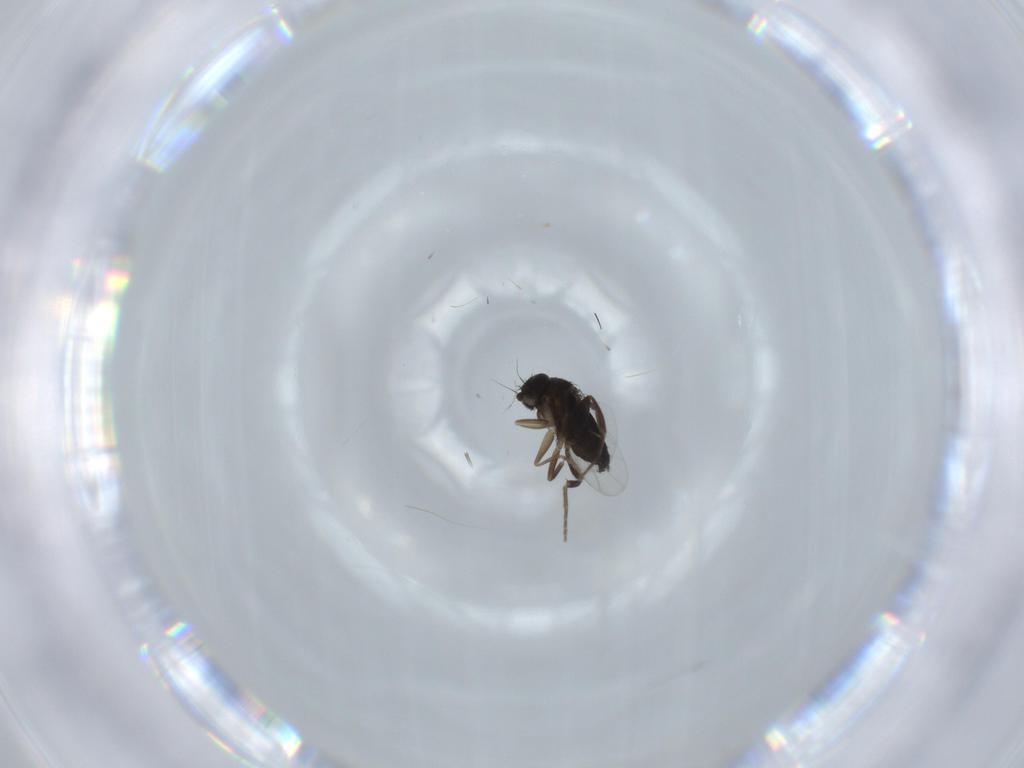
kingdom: Animalia
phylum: Arthropoda
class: Insecta
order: Diptera
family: Phoridae
